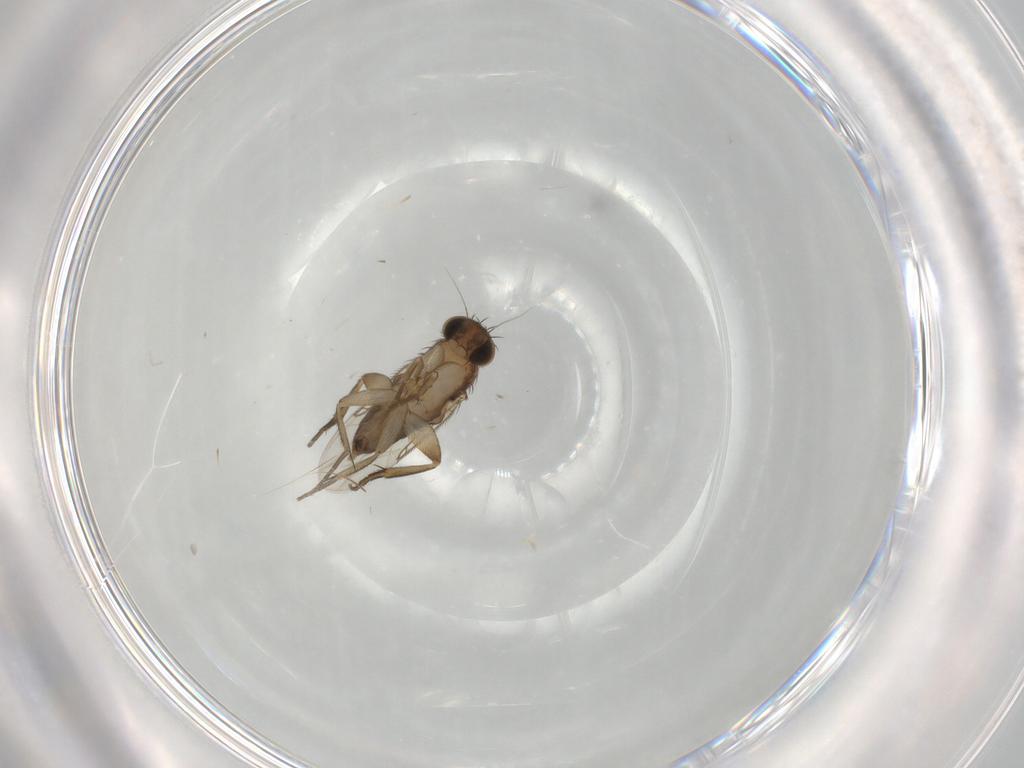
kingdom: Animalia
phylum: Arthropoda
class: Insecta
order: Diptera
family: Phoridae
